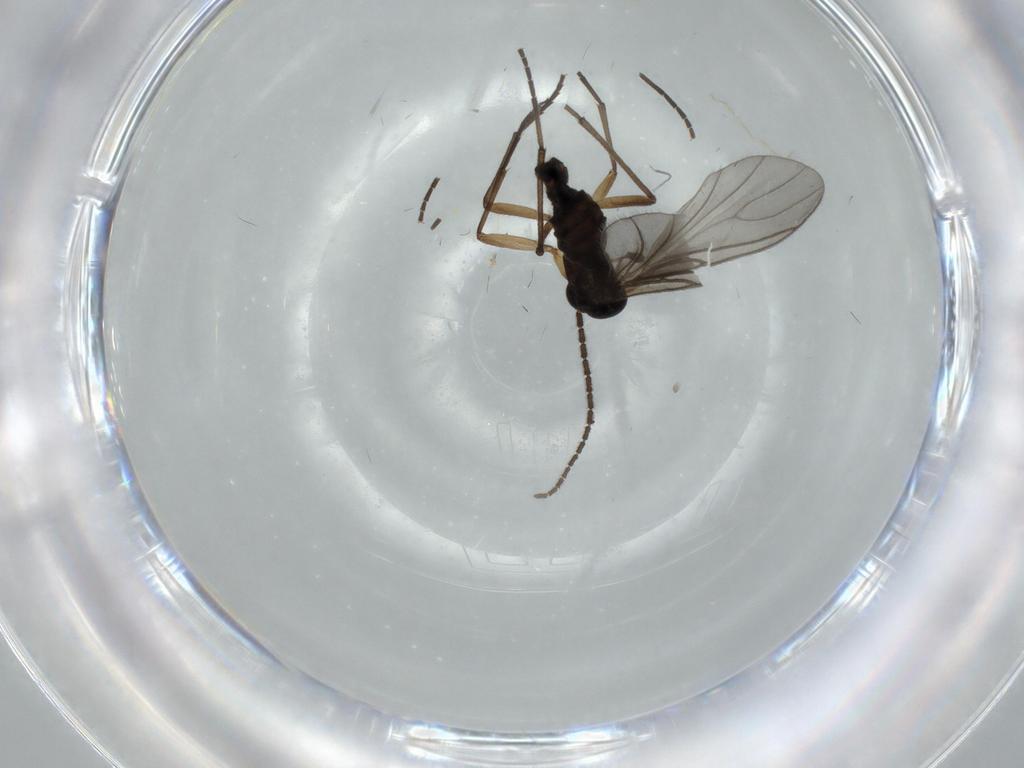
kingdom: Animalia
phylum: Arthropoda
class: Insecta
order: Diptera
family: Sciaridae
